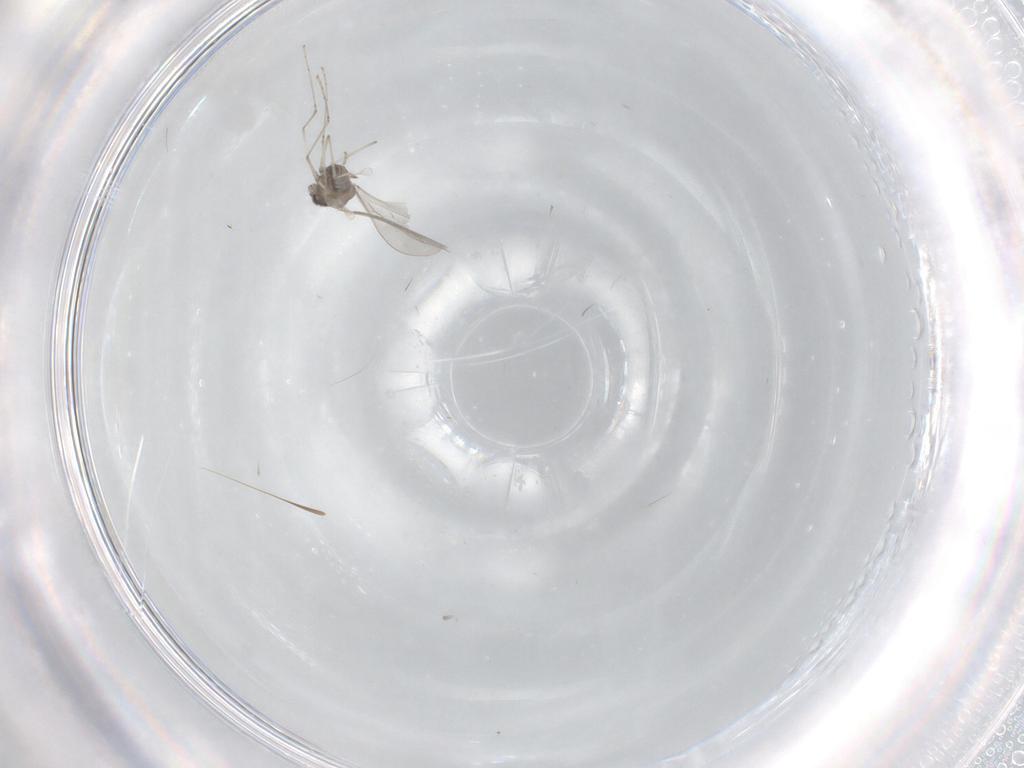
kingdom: Animalia
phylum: Arthropoda
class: Insecta
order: Diptera
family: Cecidomyiidae
